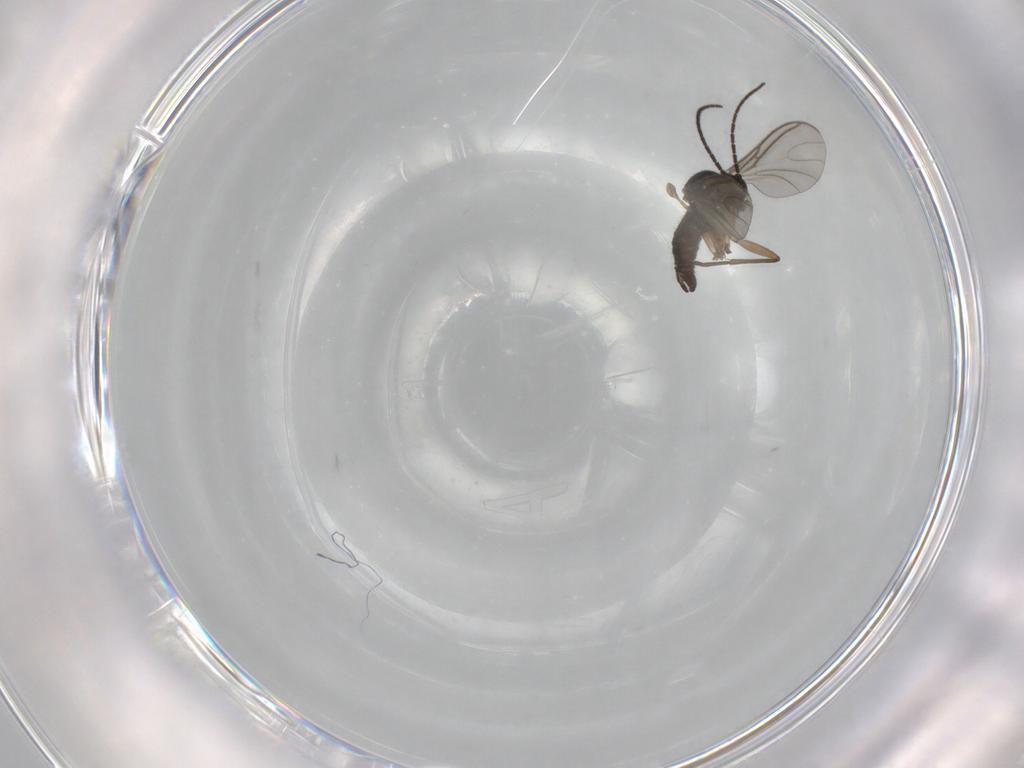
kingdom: Animalia
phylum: Arthropoda
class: Insecta
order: Diptera
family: Sciaridae
